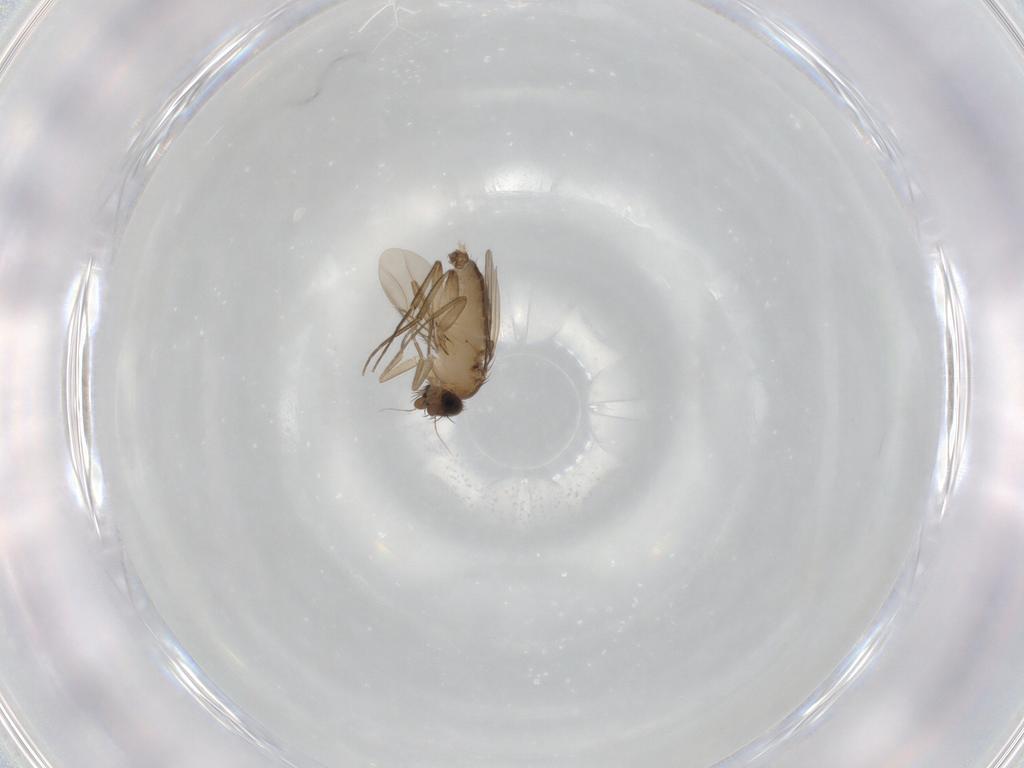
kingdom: Animalia
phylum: Arthropoda
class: Insecta
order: Diptera
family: Phoridae
